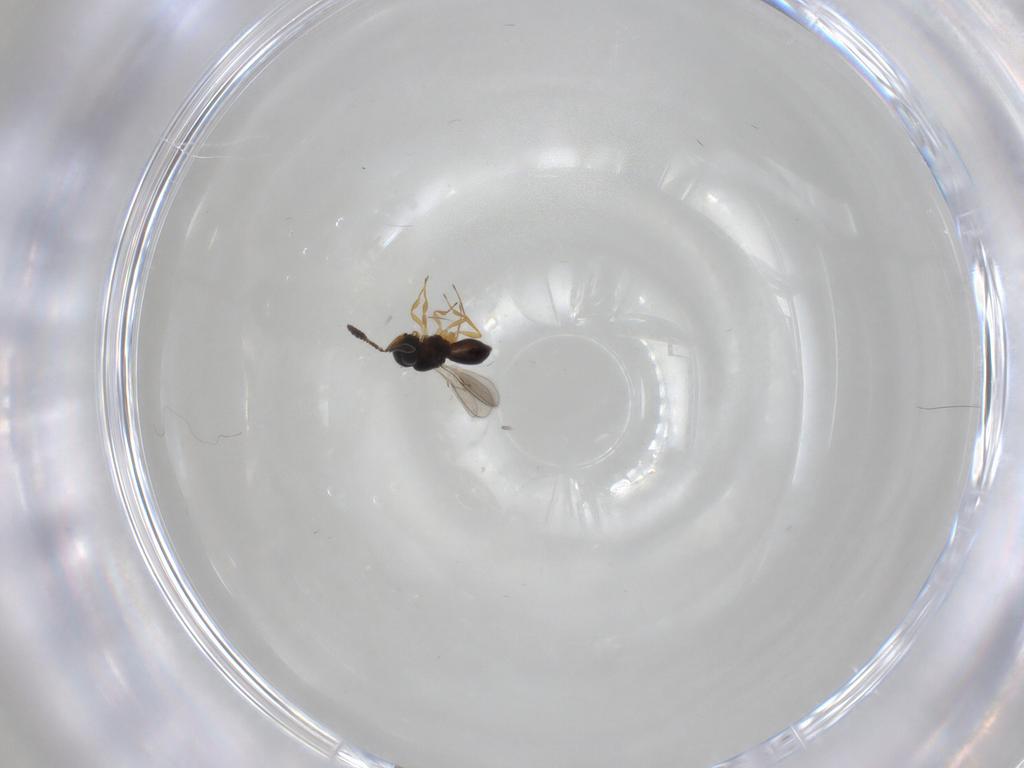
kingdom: Animalia
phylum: Arthropoda
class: Insecta
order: Hymenoptera
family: Scelionidae
